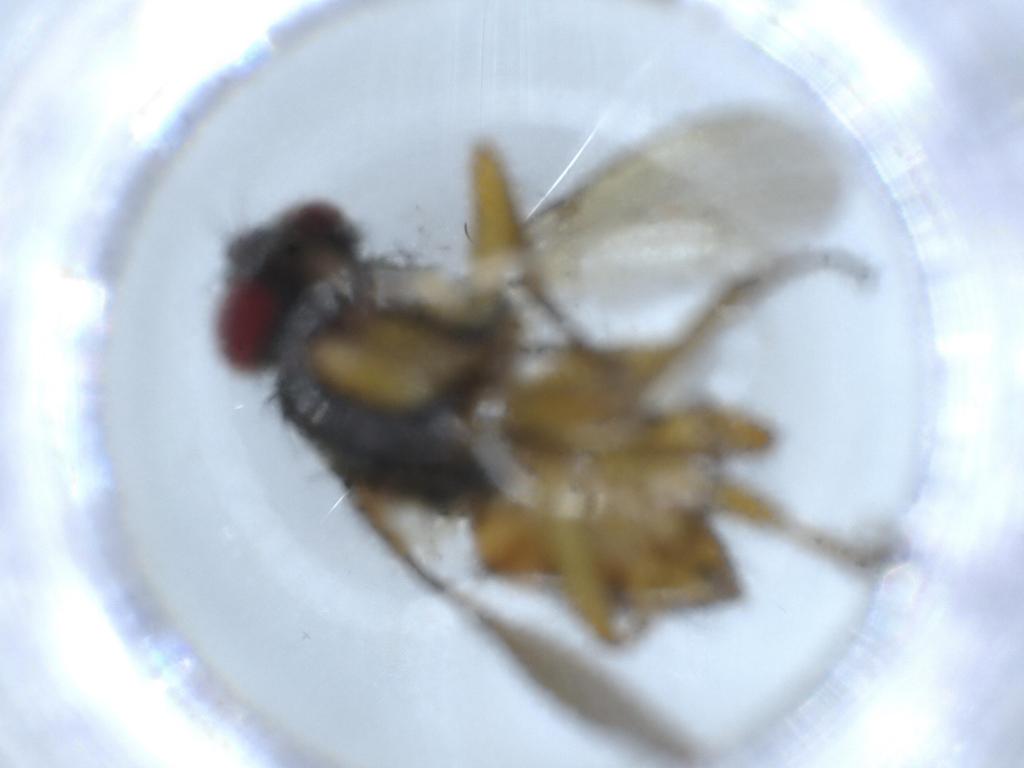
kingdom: Animalia
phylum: Arthropoda
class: Insecta
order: Diptera
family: Muscidae
